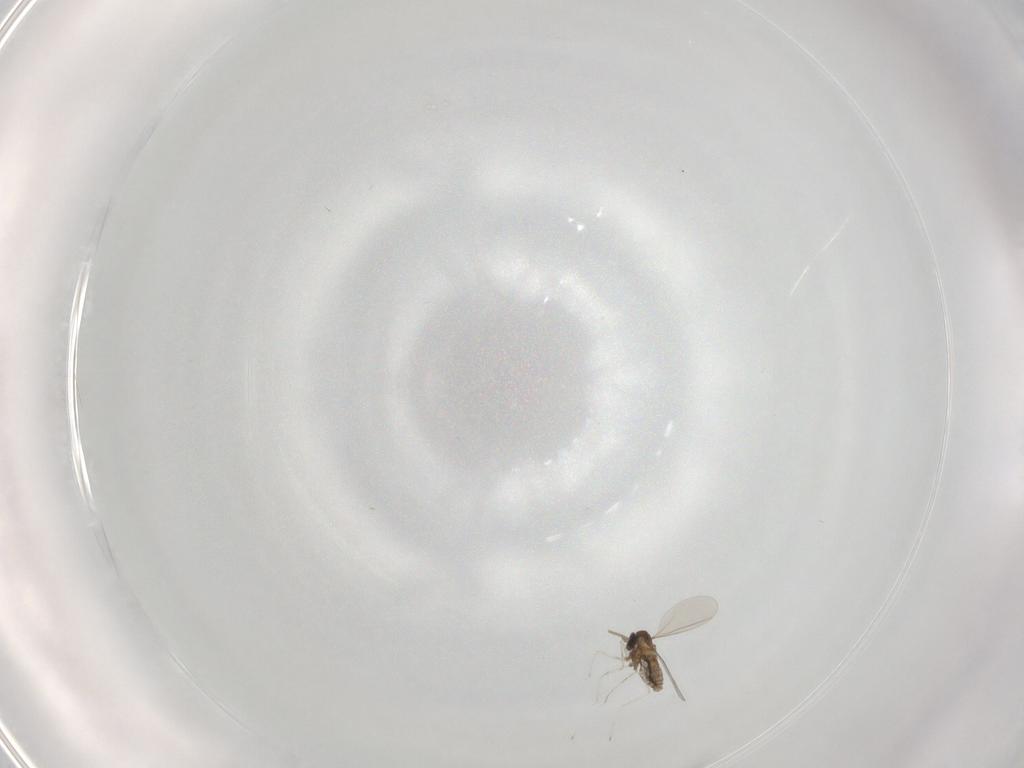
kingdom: Animalia
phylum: Arthropoda
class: Insecta
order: Diptera
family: Cecidomyiidae
